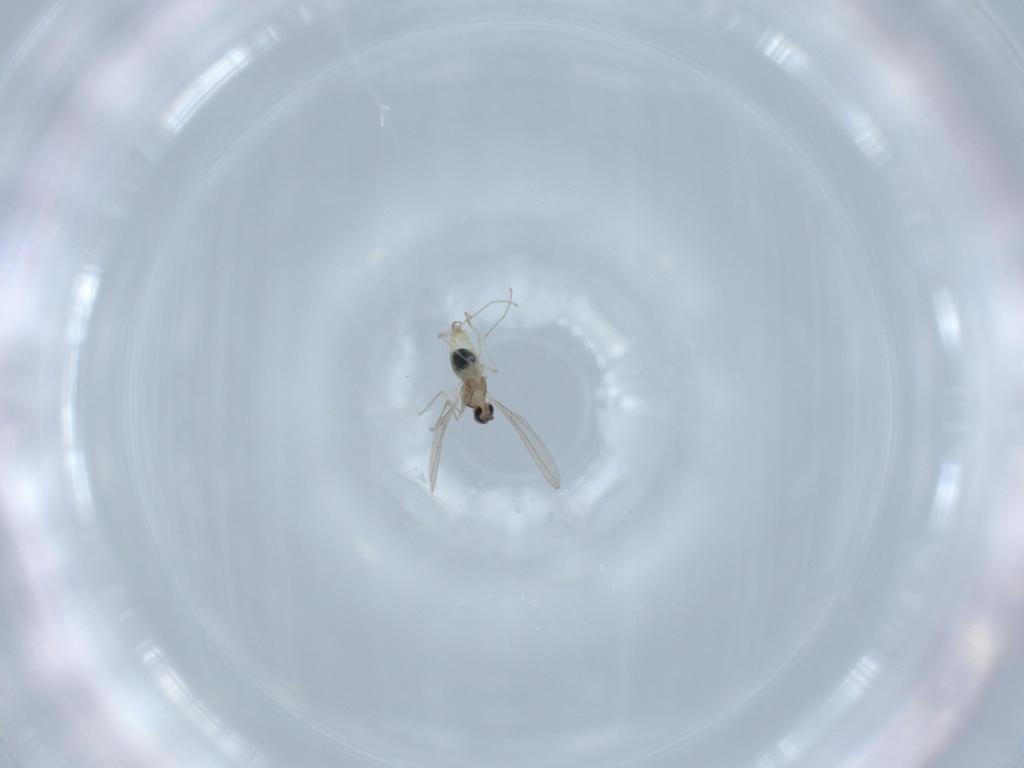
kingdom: Animalia
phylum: Arthropoda
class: Insecta
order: Diptera
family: Cecidomyiidae
